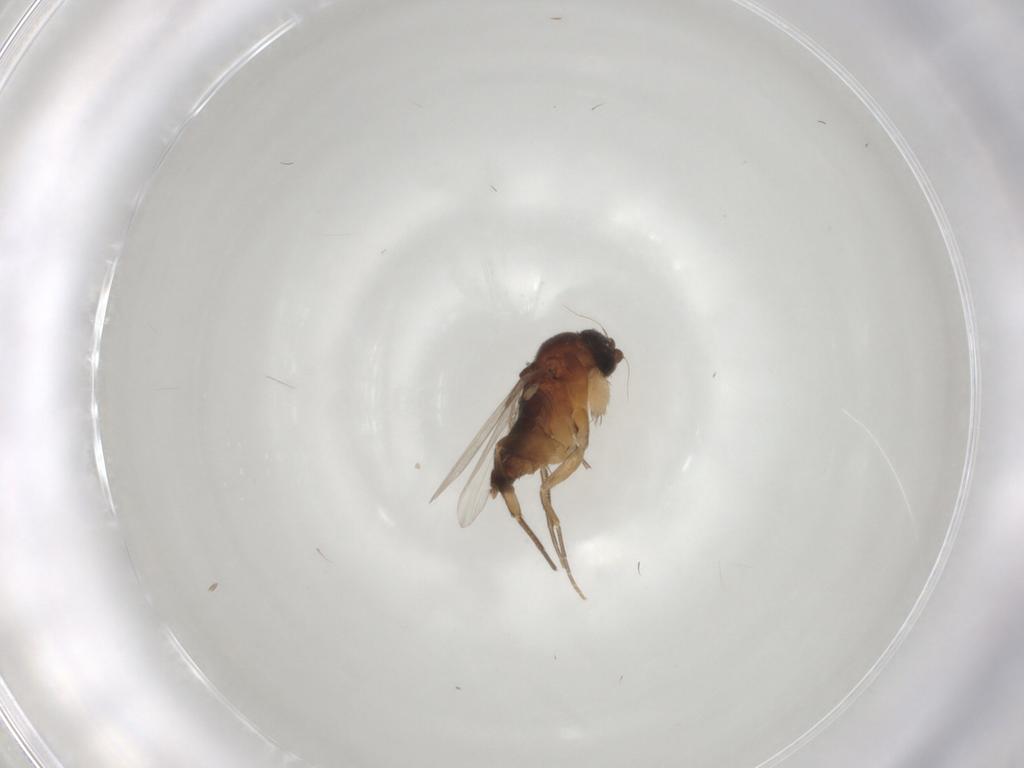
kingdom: Animalia
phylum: Arthropoda
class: Insecta
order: Diptera
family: Phoridae
